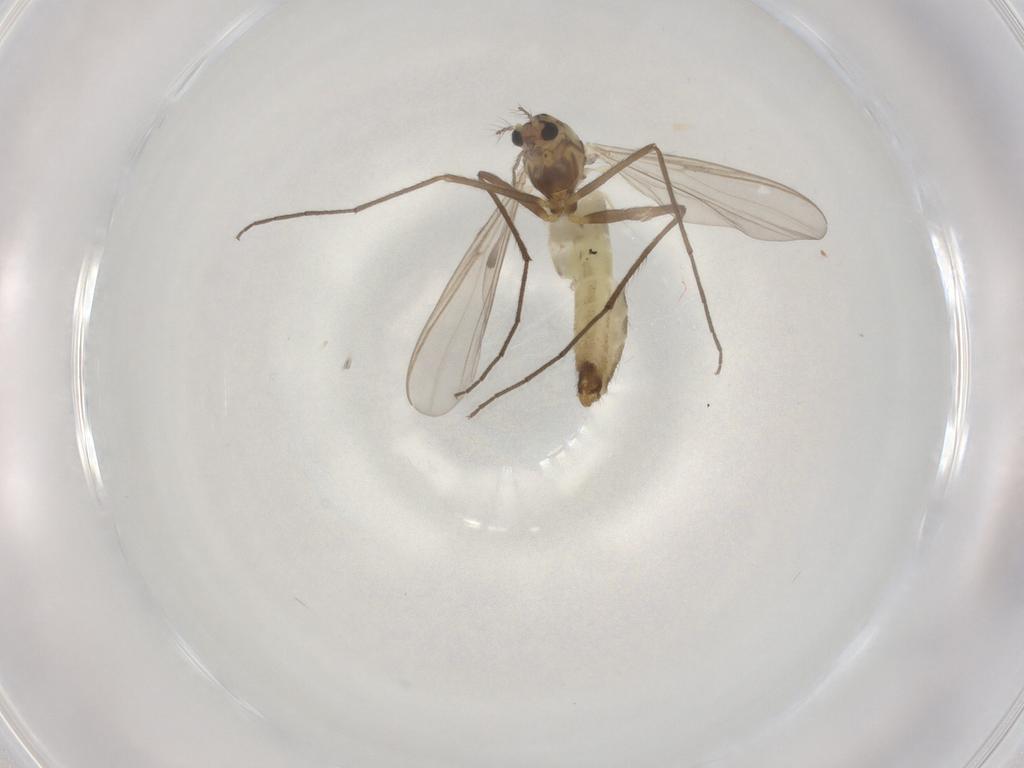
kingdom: Animalia
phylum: Arthropoda
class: Insecta
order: Diptera
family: Chironomidae
